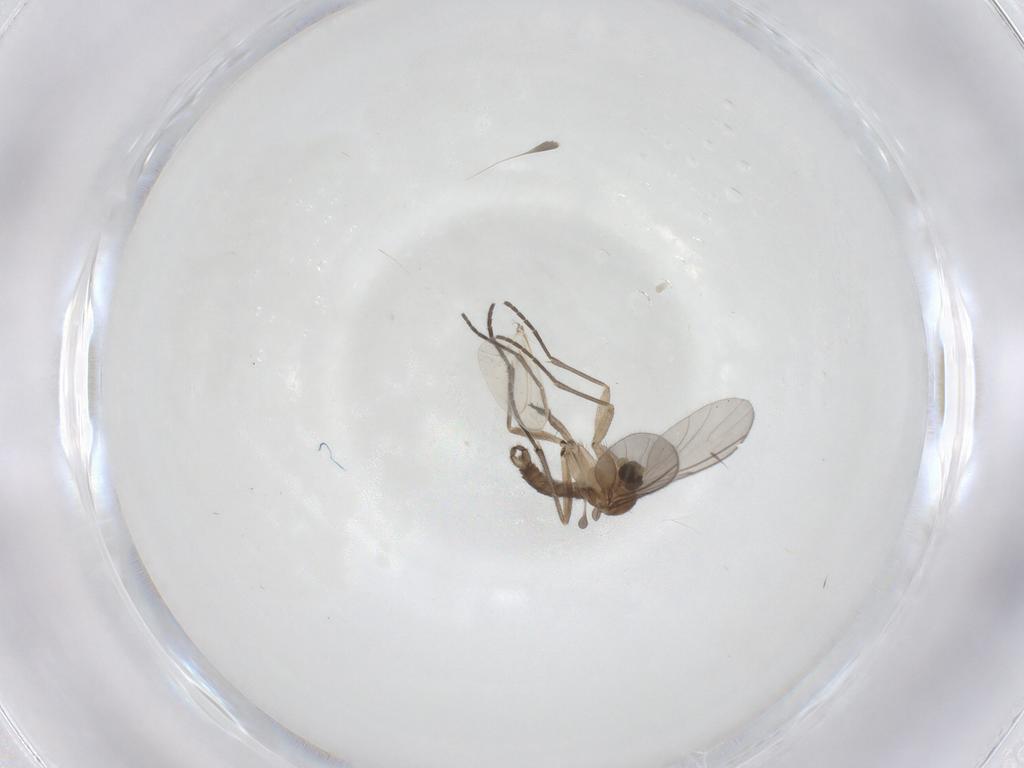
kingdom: Animalia
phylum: Arthropoda
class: Insecta
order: Diptera
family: Sciaridae
